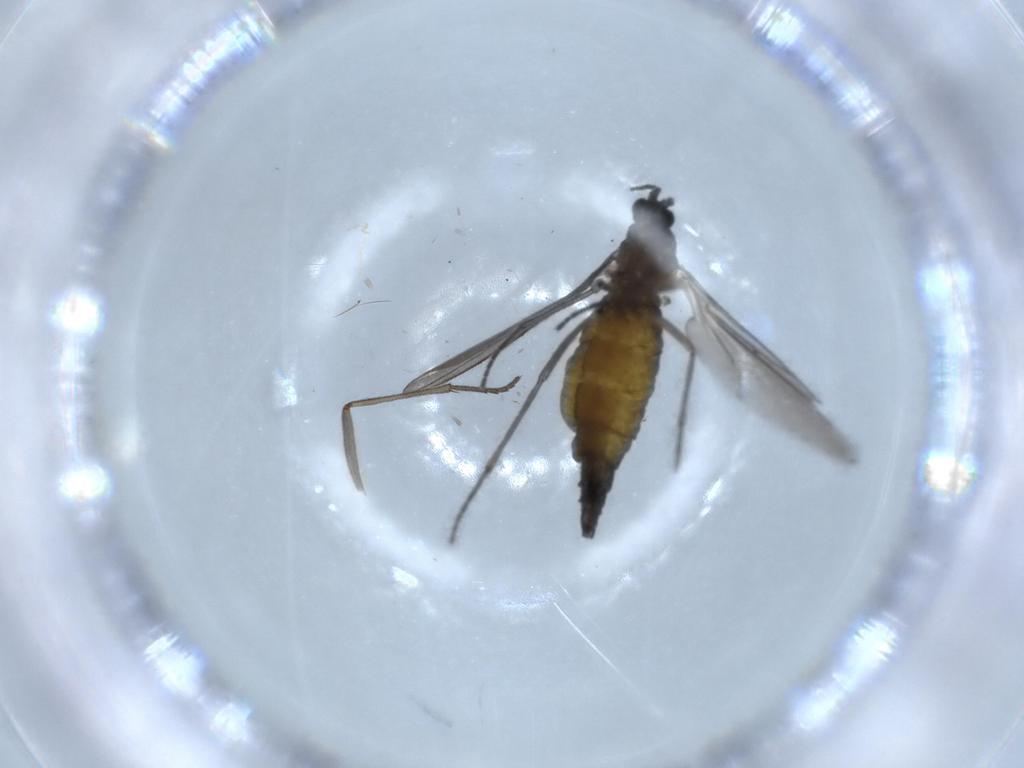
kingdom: Animalia
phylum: Arthropoda
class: Insecta
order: Diptera
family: Sciaridae
